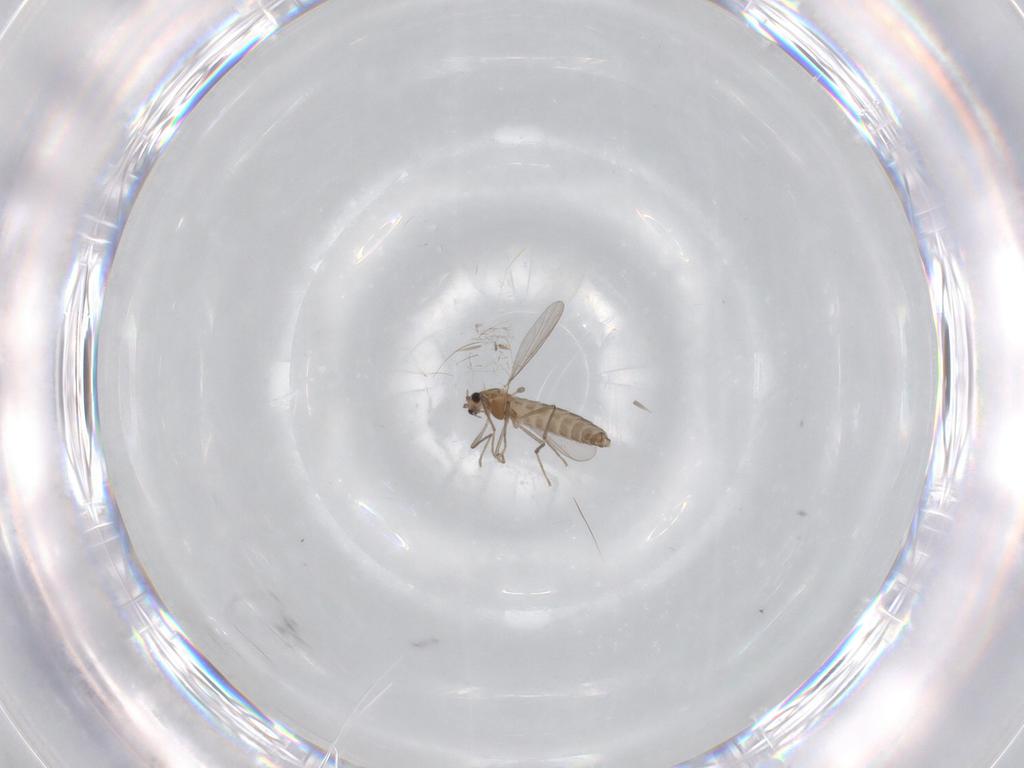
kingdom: Animalia
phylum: Arthropoda
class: Insecta
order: Diptera
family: Chironomidae
